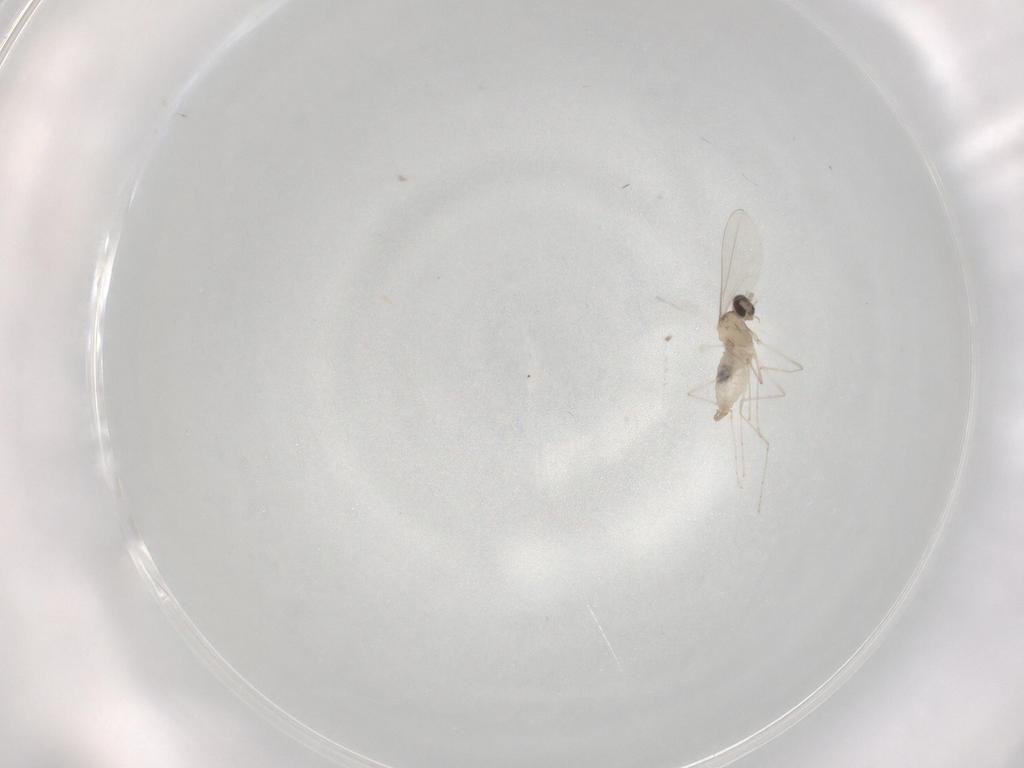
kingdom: Animalia
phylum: Arthropoda
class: Insecta
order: Diptera
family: Cecidomyiidae
